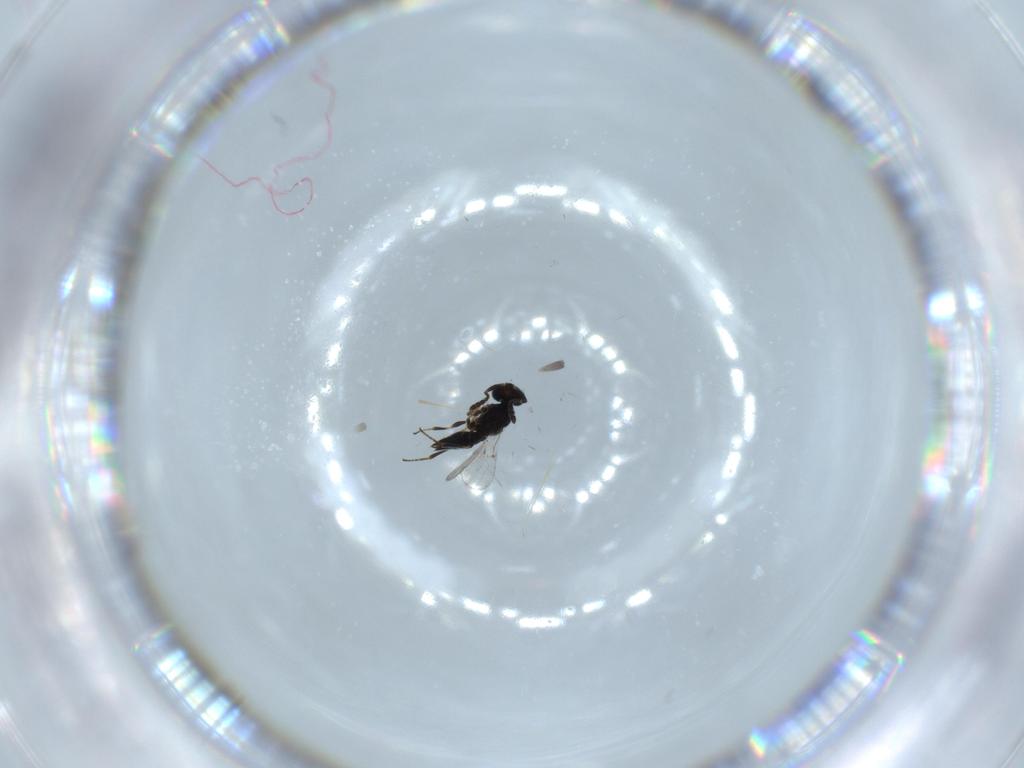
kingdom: Animalia
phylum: Arthropoda
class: Insecta
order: Hymenoptera
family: Platygastridae
